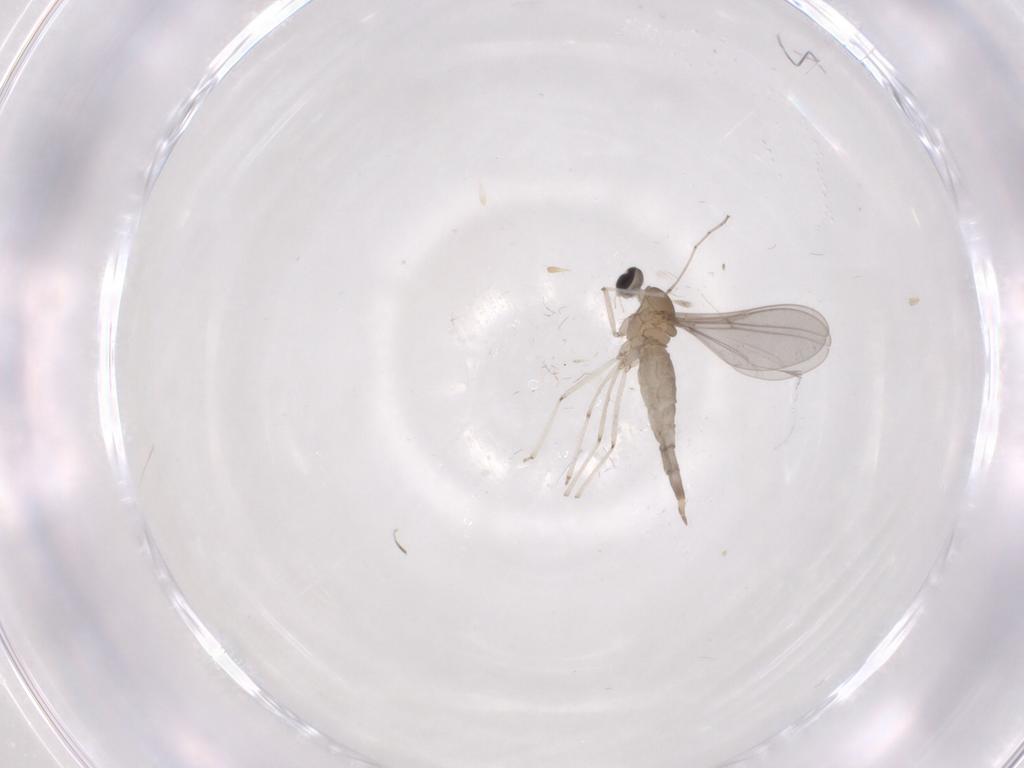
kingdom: Animalia
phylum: Arthropoda
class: Insecta
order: Diptera
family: Cecidomyiidae
